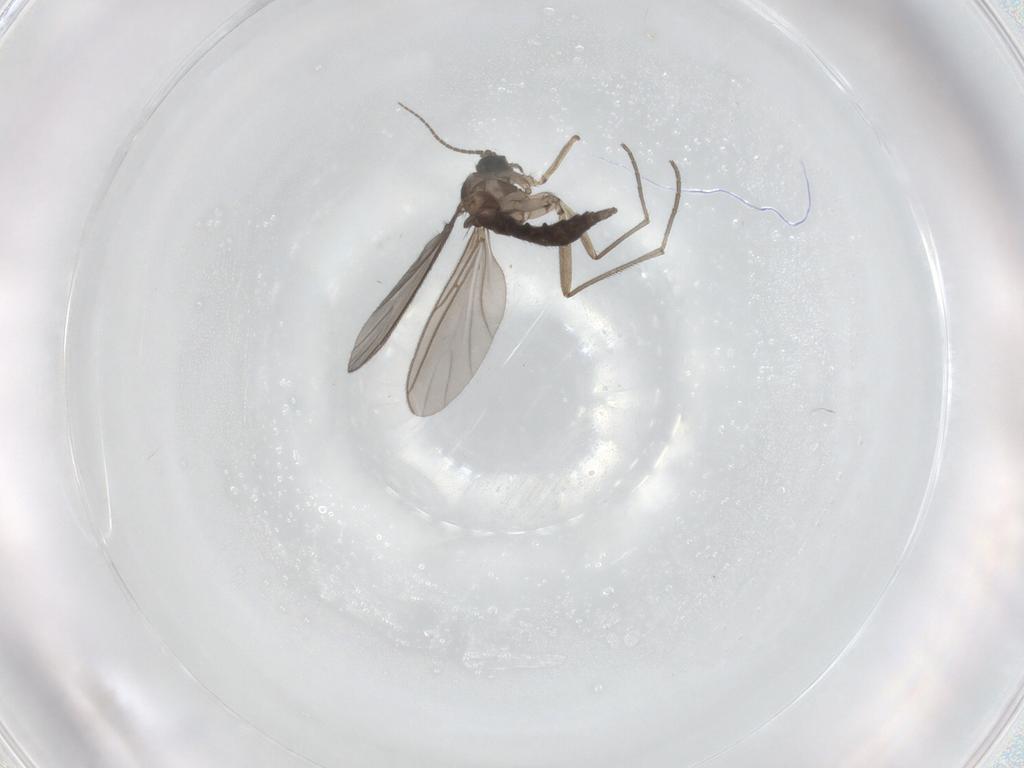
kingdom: Animalia
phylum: Arthropoda
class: Insecta
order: Diptera
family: Sciaridae
